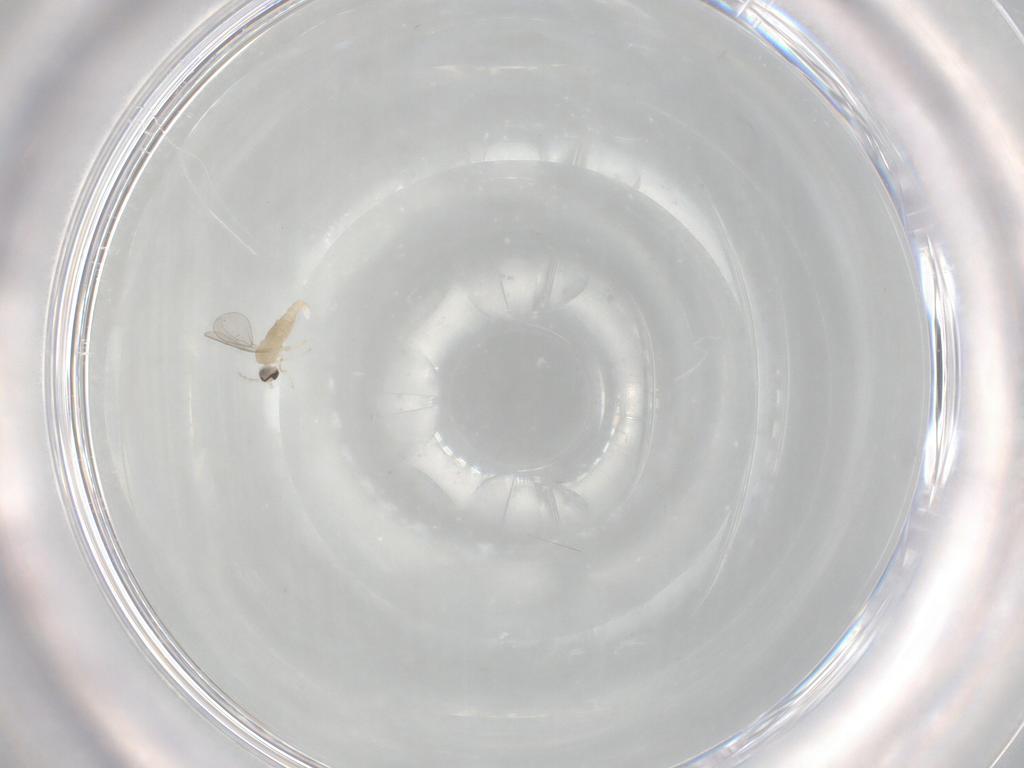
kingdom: Animalia
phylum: Arthropoda
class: Insecta
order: Diptera
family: Cecidomyiidae
